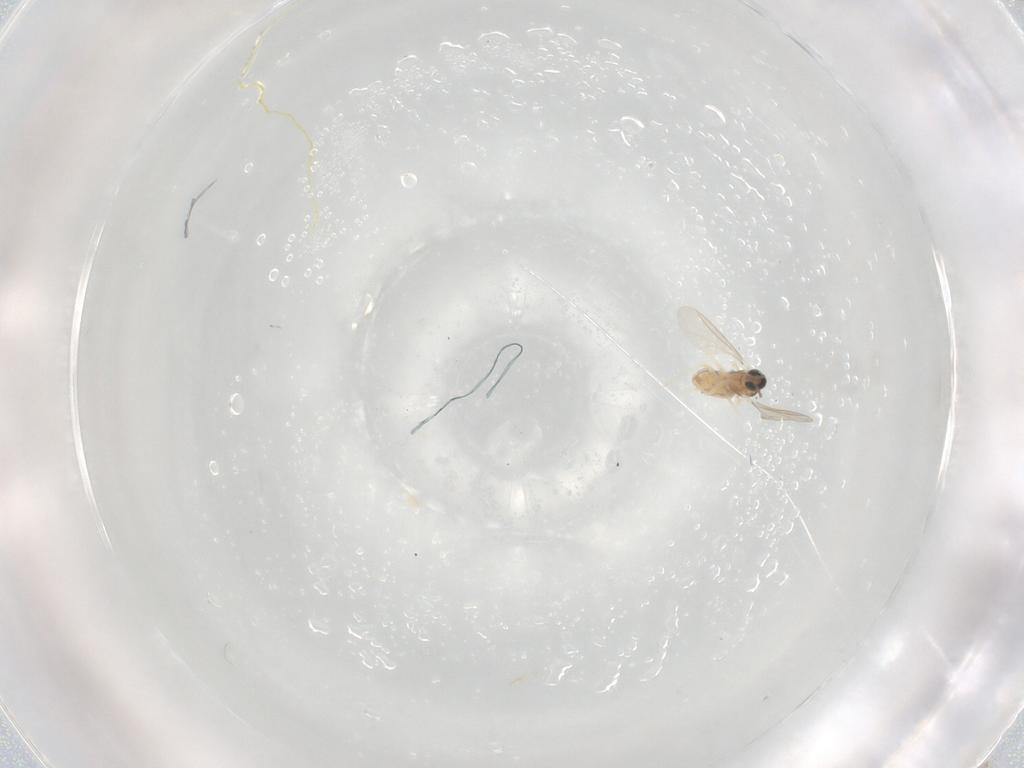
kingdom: Animalia
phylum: Arthropoda
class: Insecta
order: Diptera
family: Cecidomyiidae
